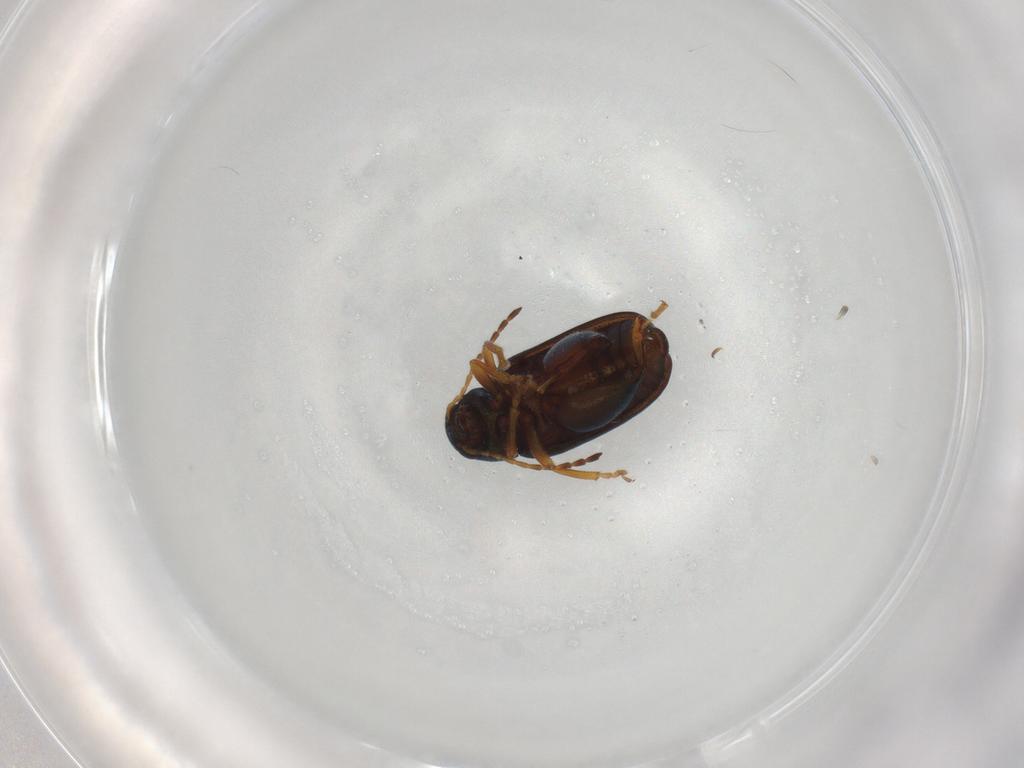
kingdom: Animalia
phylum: Arthropoda
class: Insecta
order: Coleoptera
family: Chrysomelidae
